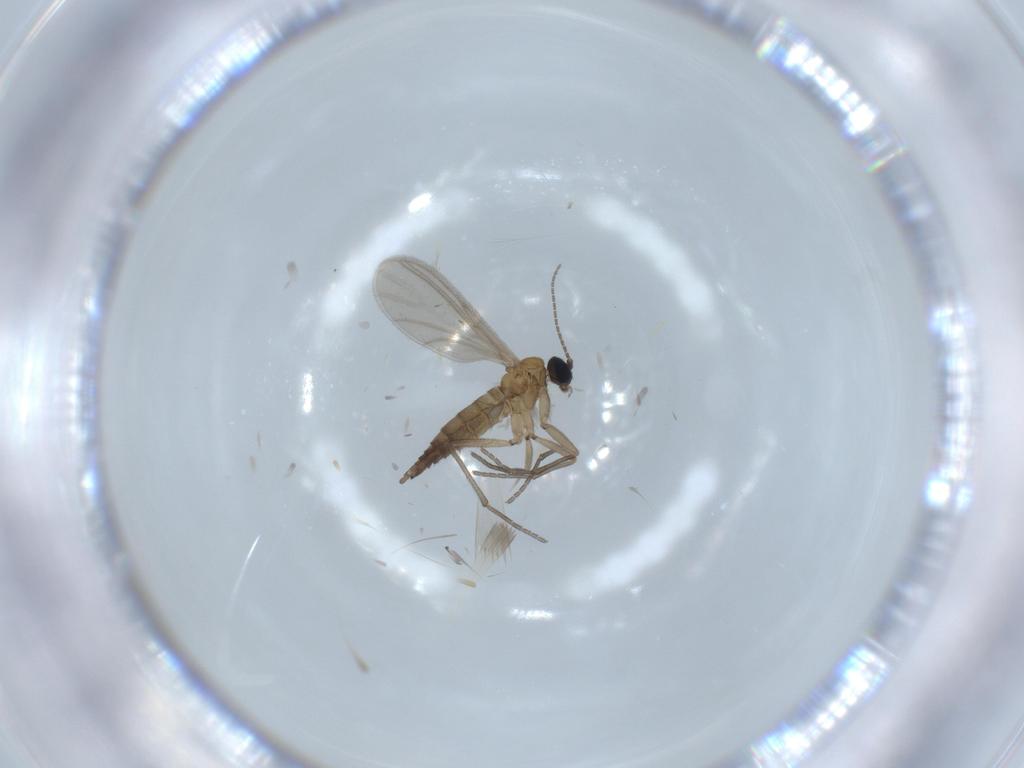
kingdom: Animalia
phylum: Arthropoda
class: Insecta
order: Diptera
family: Sciaridae
